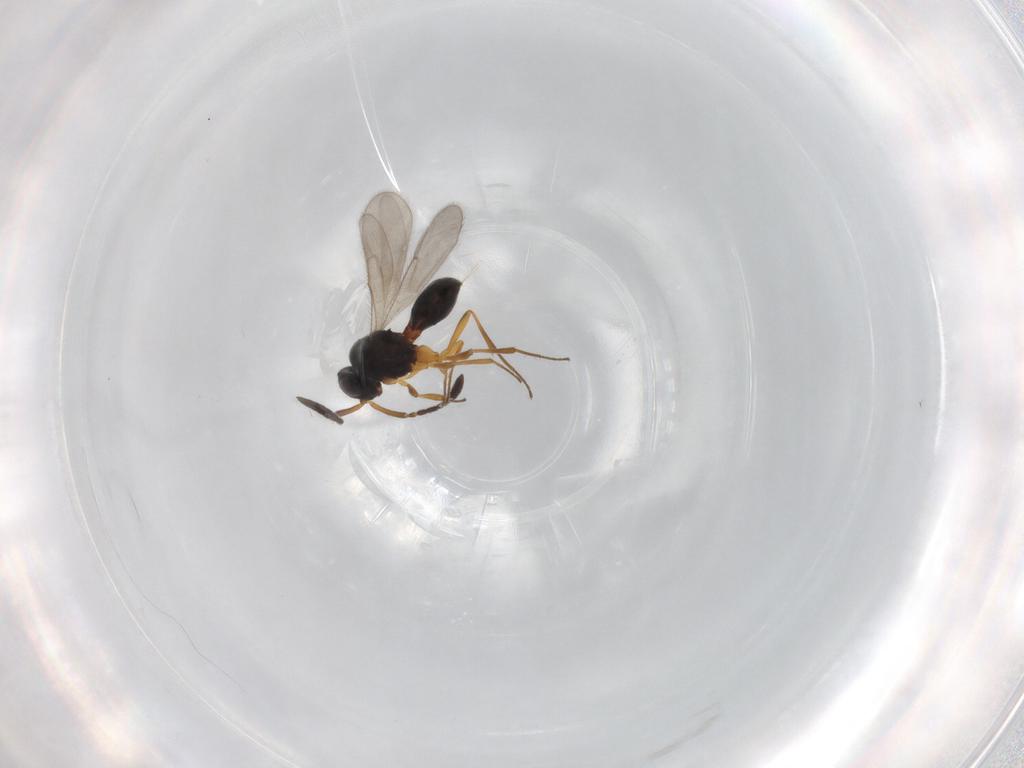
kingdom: Animalia
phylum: Arthropoda
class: Insecta
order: Hymenoptera
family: Scelionidae
